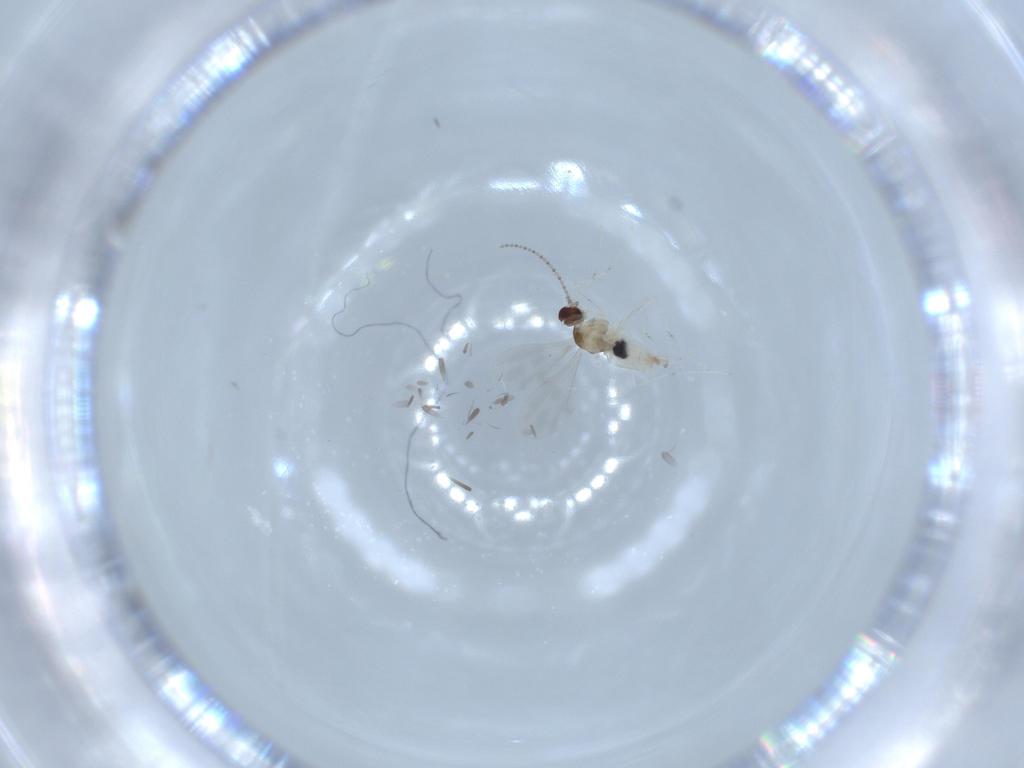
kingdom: Animalia
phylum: Arthropoda
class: Insecta
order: Diptera
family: Cecidomyiidae
